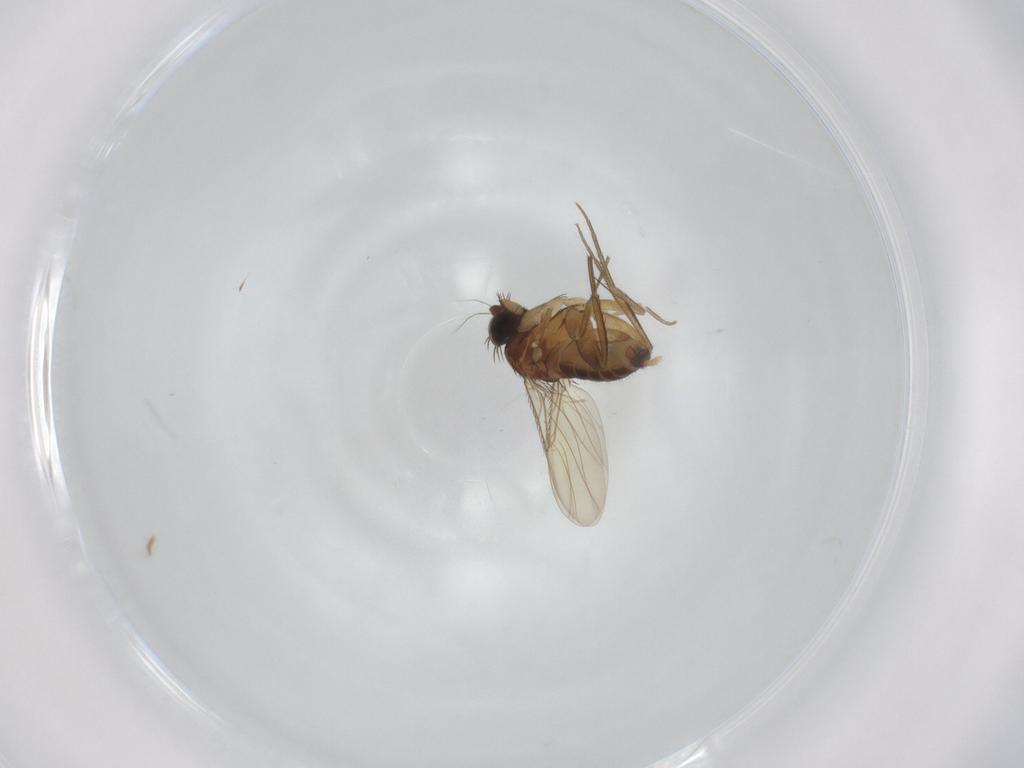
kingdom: Animalia
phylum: Arthropoda
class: Insecta
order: Diptera
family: Phoridae
